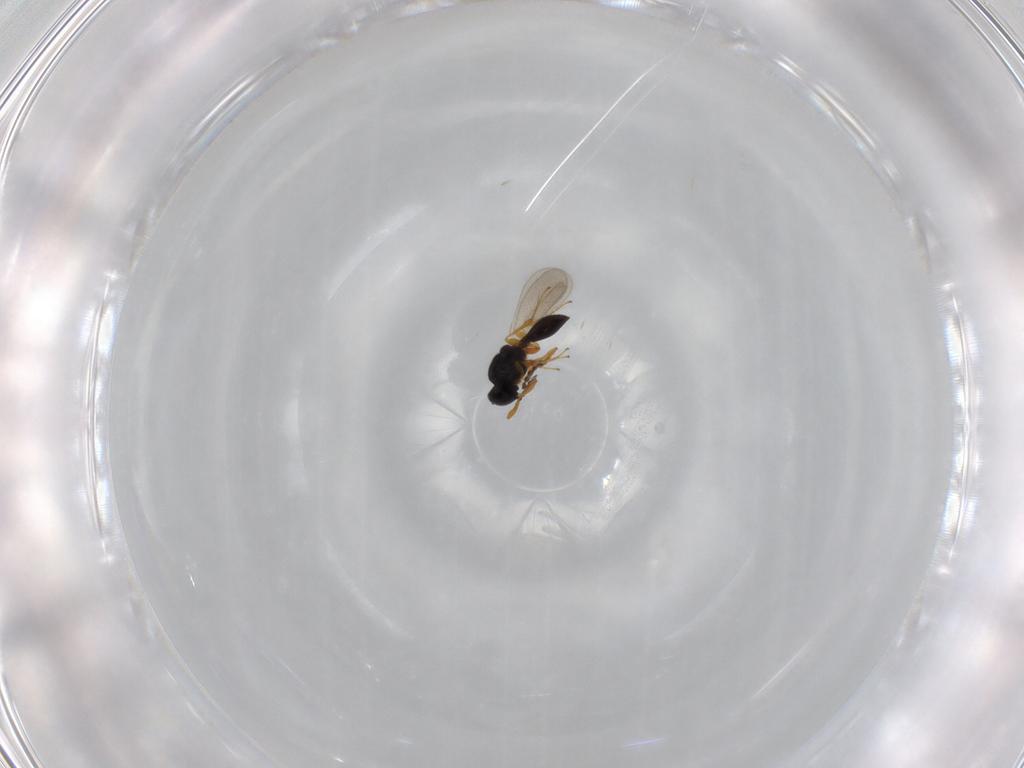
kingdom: Animalia
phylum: Arthropoda
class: Insecta
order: Hymenoptera
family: Platygastridae
